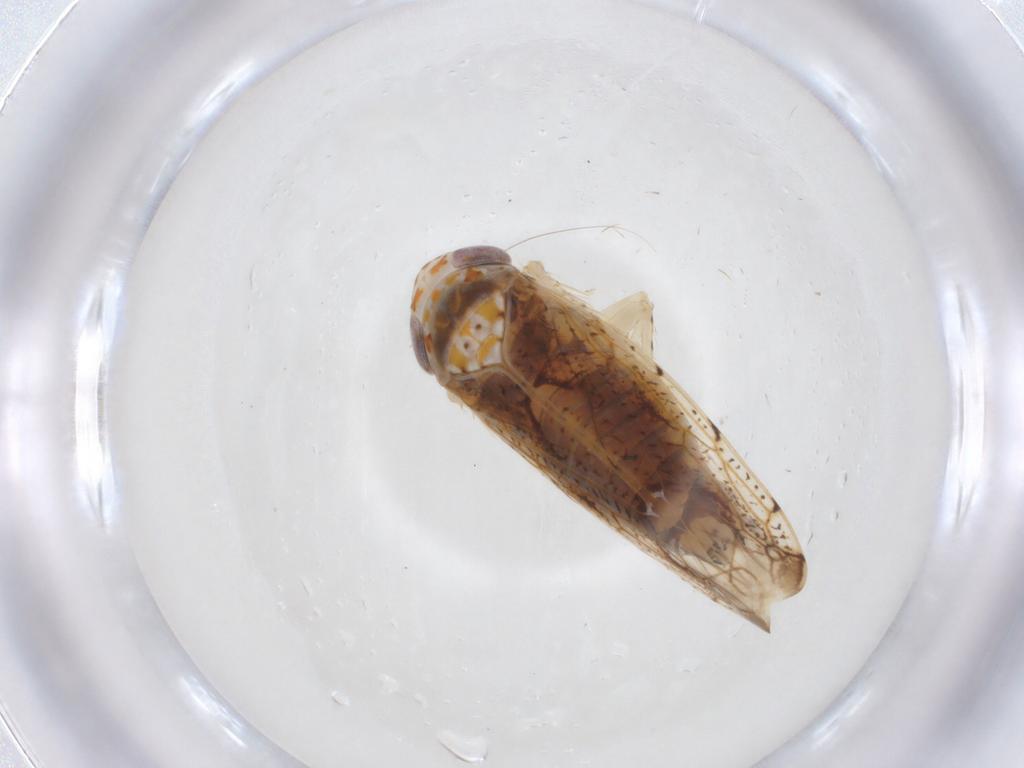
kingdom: Animalia
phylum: Arthropoda
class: Insecta
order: Hemiptera
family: Cicadellidae
